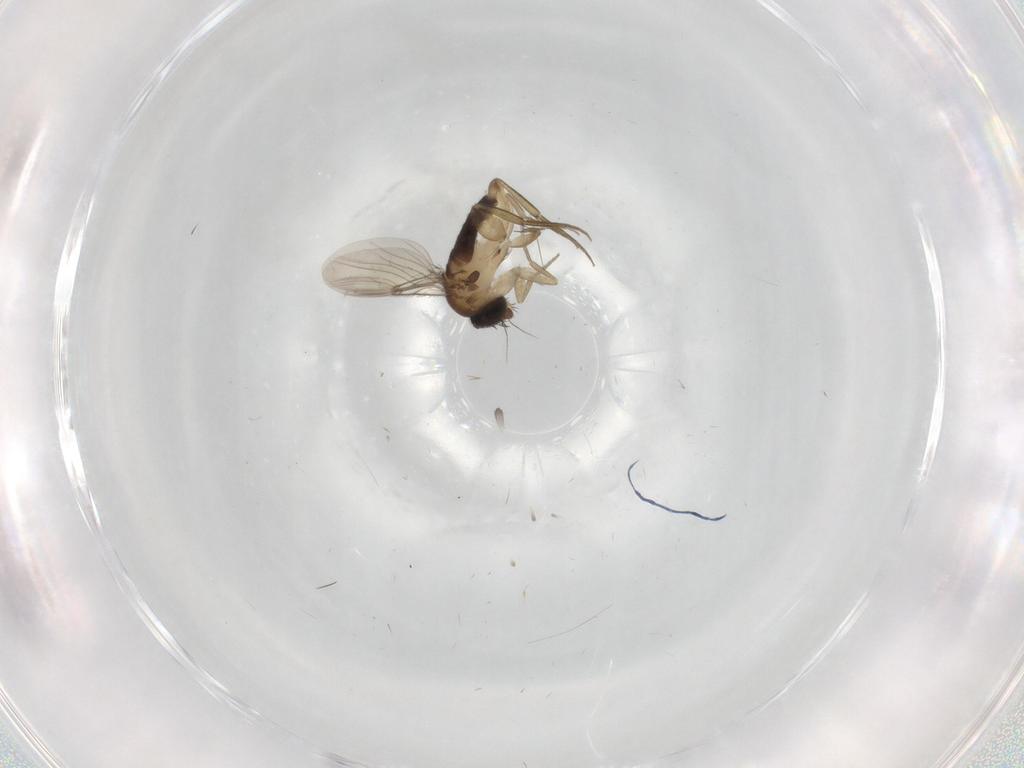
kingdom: Animalia
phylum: Arthropoda
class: Insecta
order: Diptera
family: Phoridae
